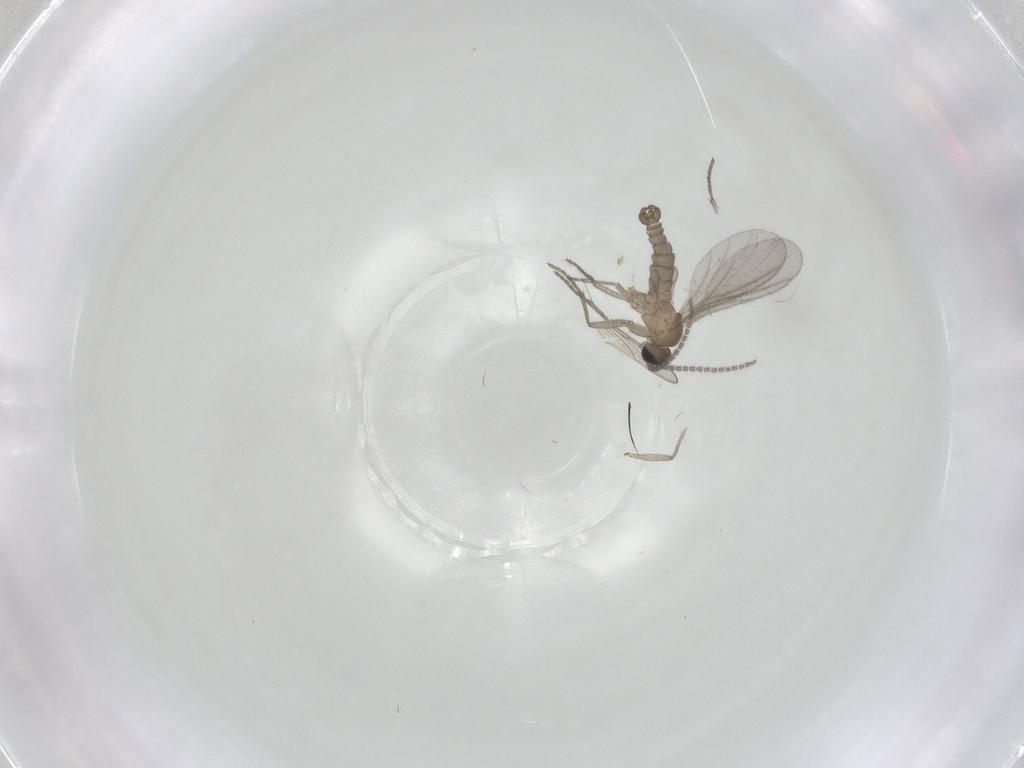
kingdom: Animalia
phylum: Arthropoda
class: Insecta
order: Diptera
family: Sciaridae
